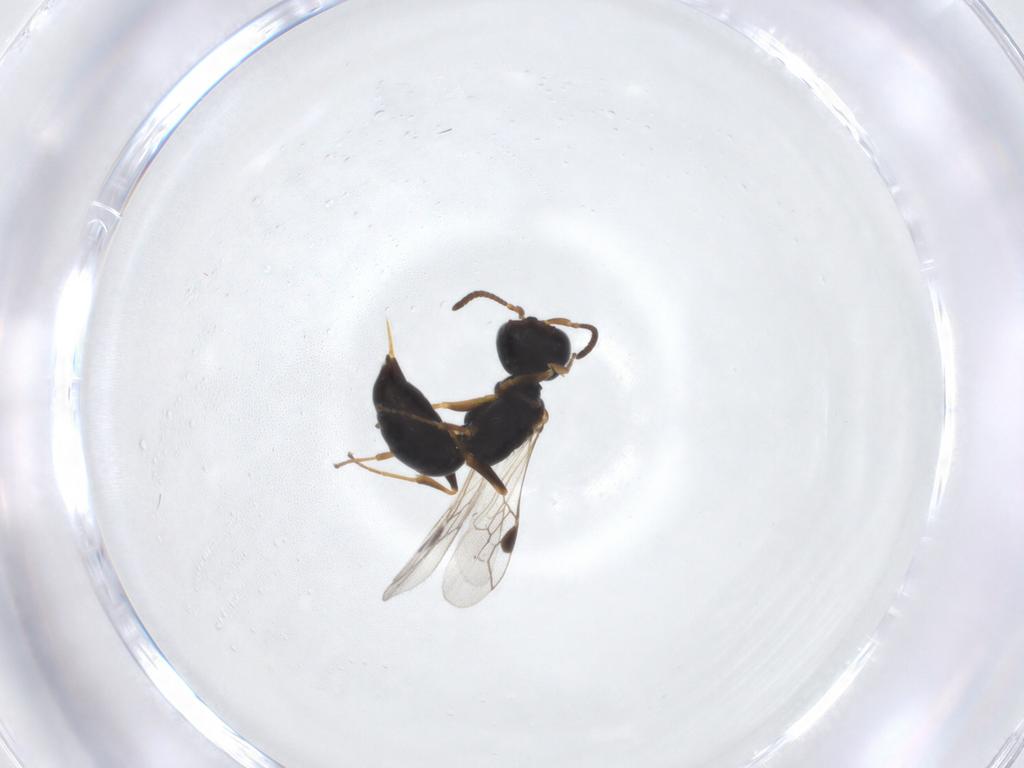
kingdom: Animalia
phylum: Arthropoda
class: Insecta
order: Hymenoptera
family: Pemphredonidae
